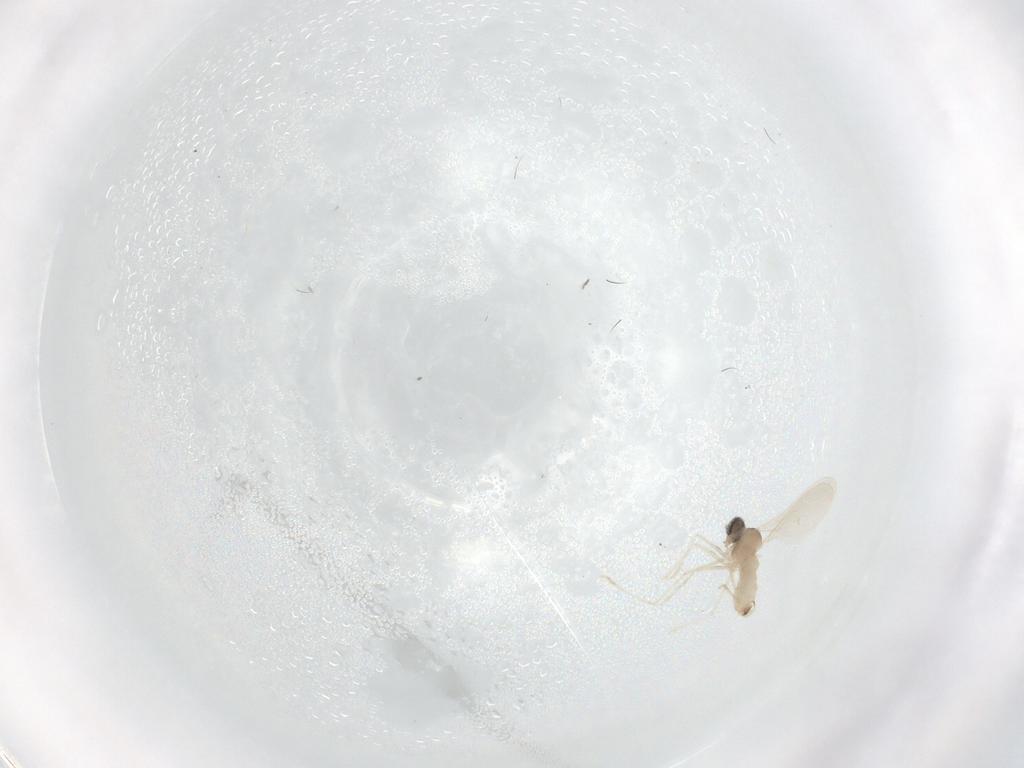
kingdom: Animalia
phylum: Arthropoda
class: Insecta
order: Diptera
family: Cecidomyiidae
